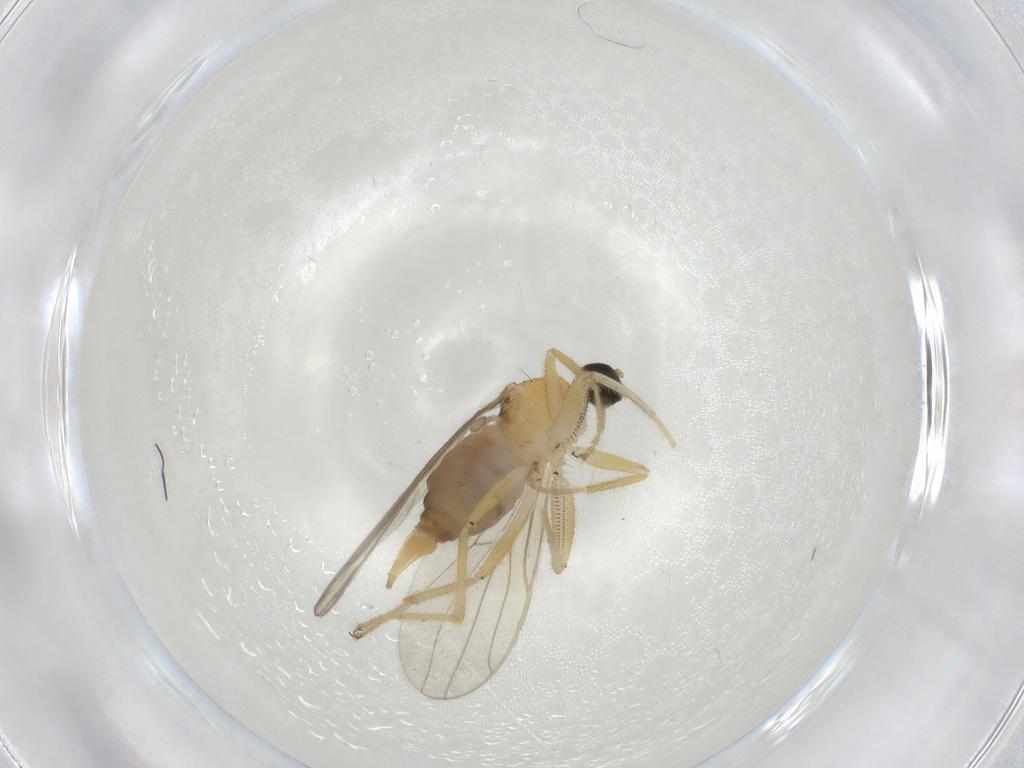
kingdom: Animalia
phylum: Arthropoda
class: Insecta
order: Diptera
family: Hybotidae
